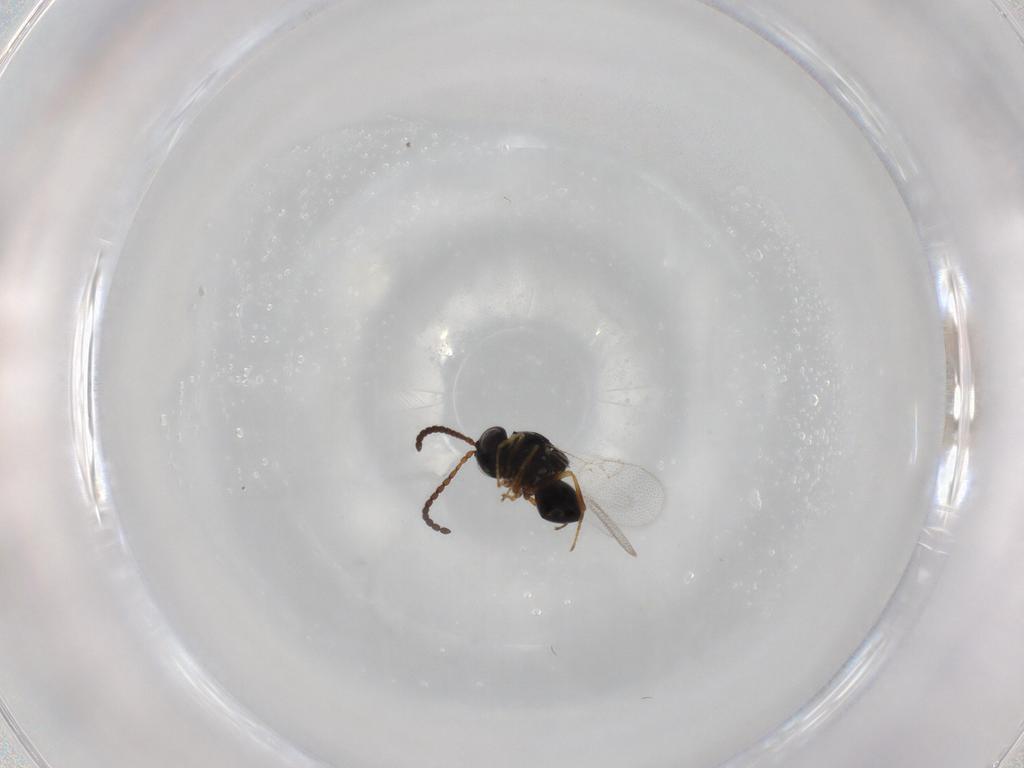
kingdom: Animalia
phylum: Arthropoda
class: Insecta
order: Hymenoptera
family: Figitidae
